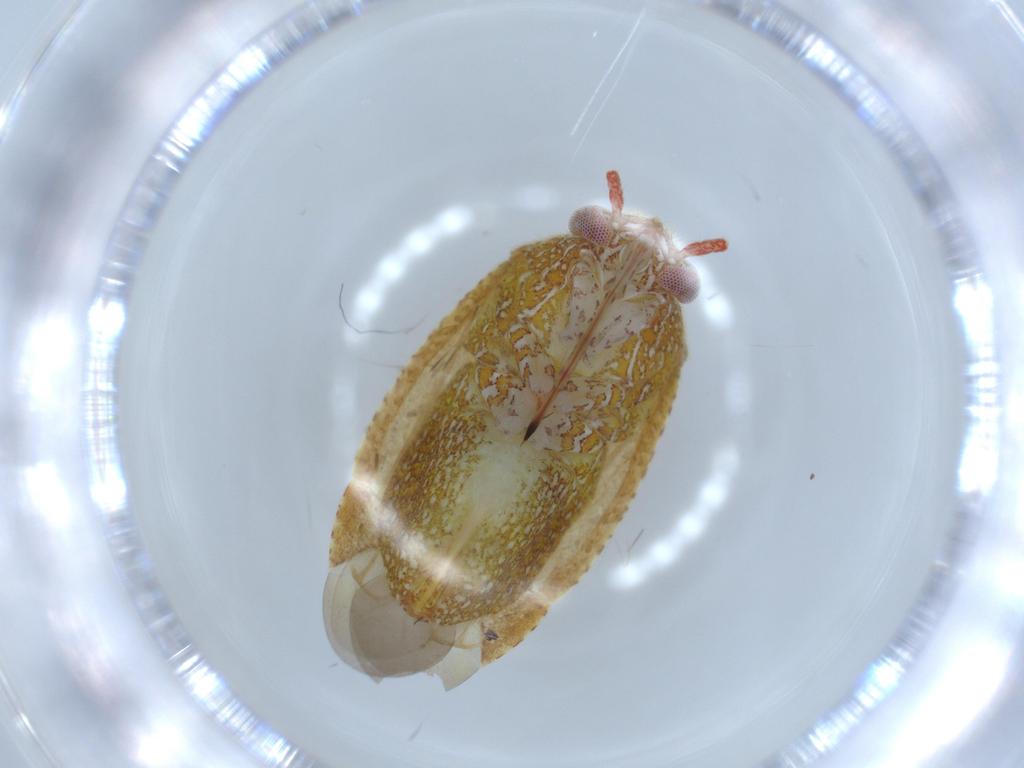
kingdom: Animalia
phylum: Arthropoda
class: Insecta
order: Hemiptera
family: Miridae
